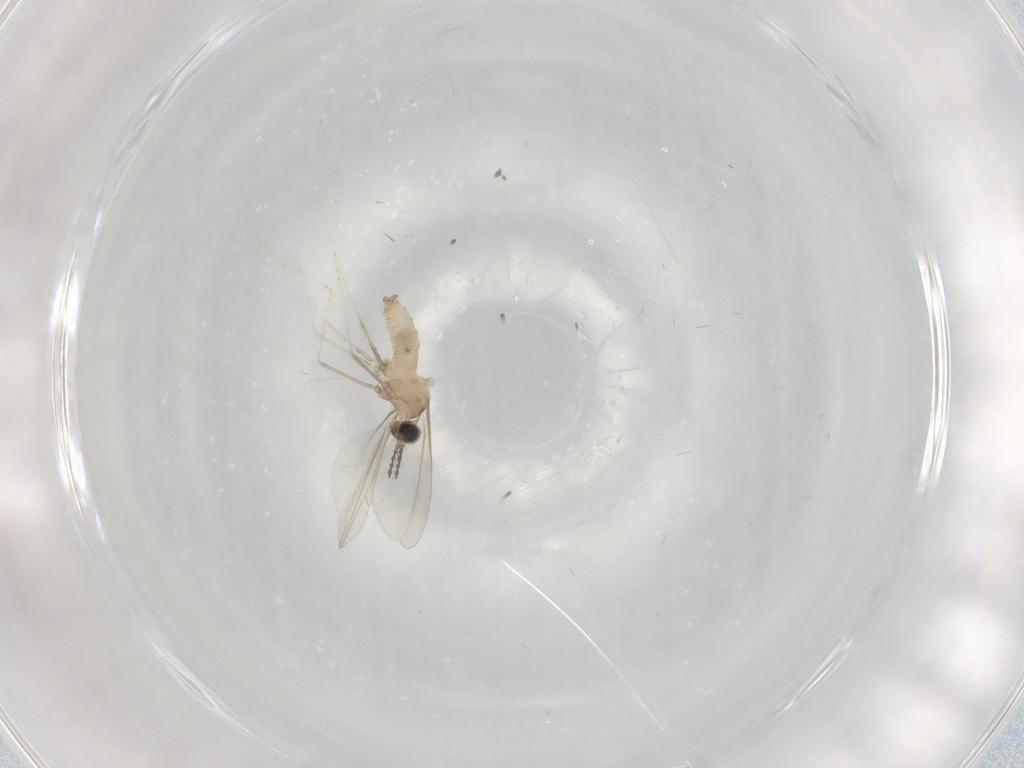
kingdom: Animalia
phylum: Arthropoda
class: Insecta
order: Diptera
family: Cecidomyiidae
